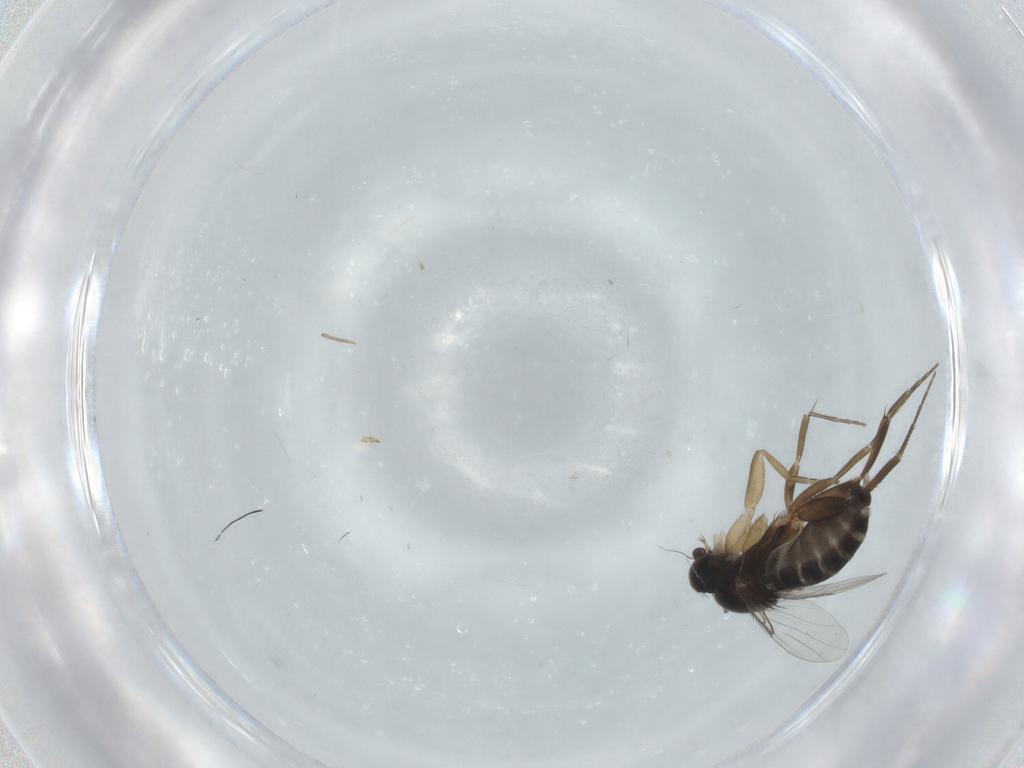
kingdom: Animalia
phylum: Arthropoda
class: Insecta
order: Diptera
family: Phoridae
